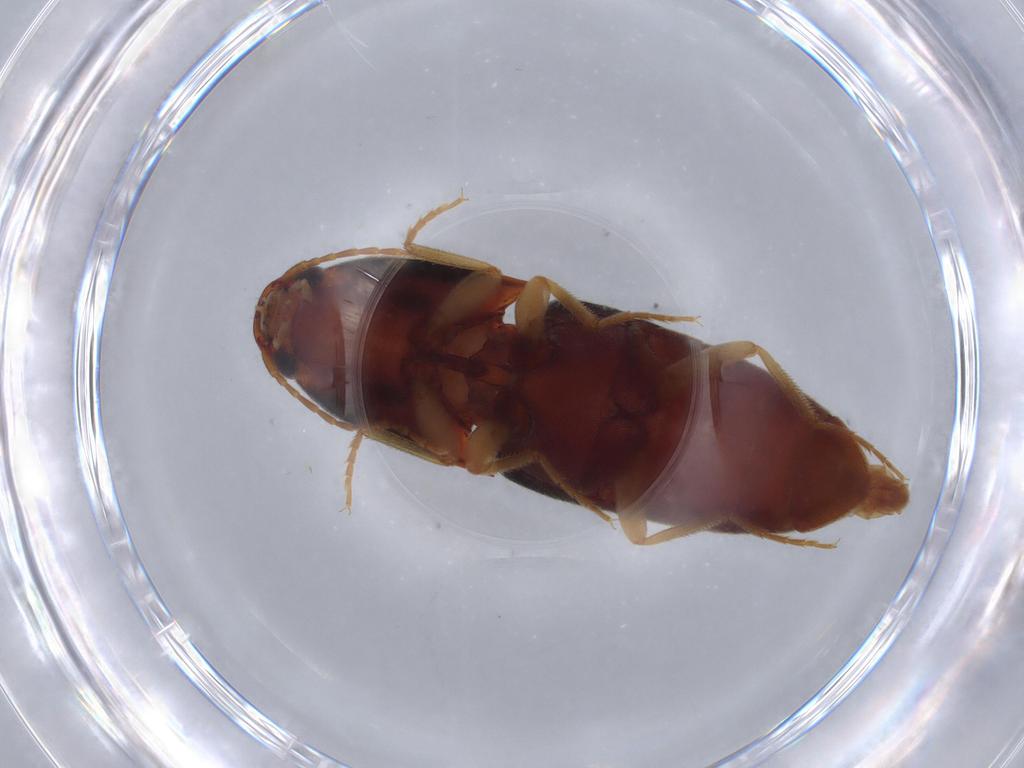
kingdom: Animalia
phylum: Arthropoda
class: Insecta
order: Coleoptera
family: Elateridae
